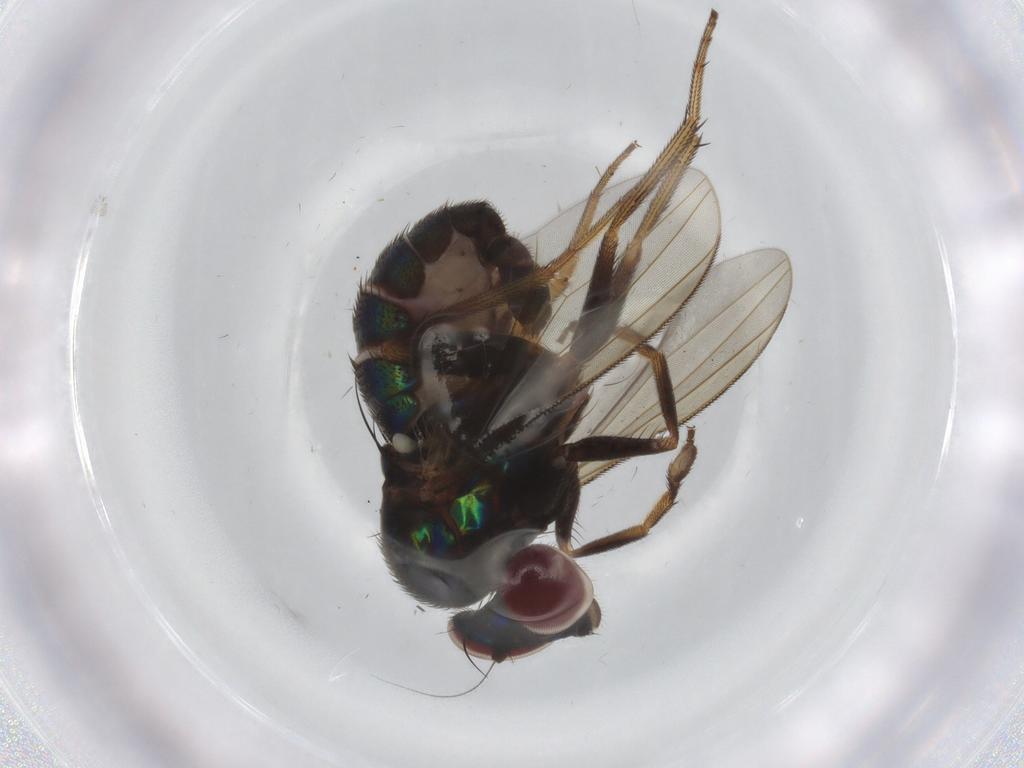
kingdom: Animalia
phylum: Arthropoda
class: Insecta
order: Diptera
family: Dolichopodidae
